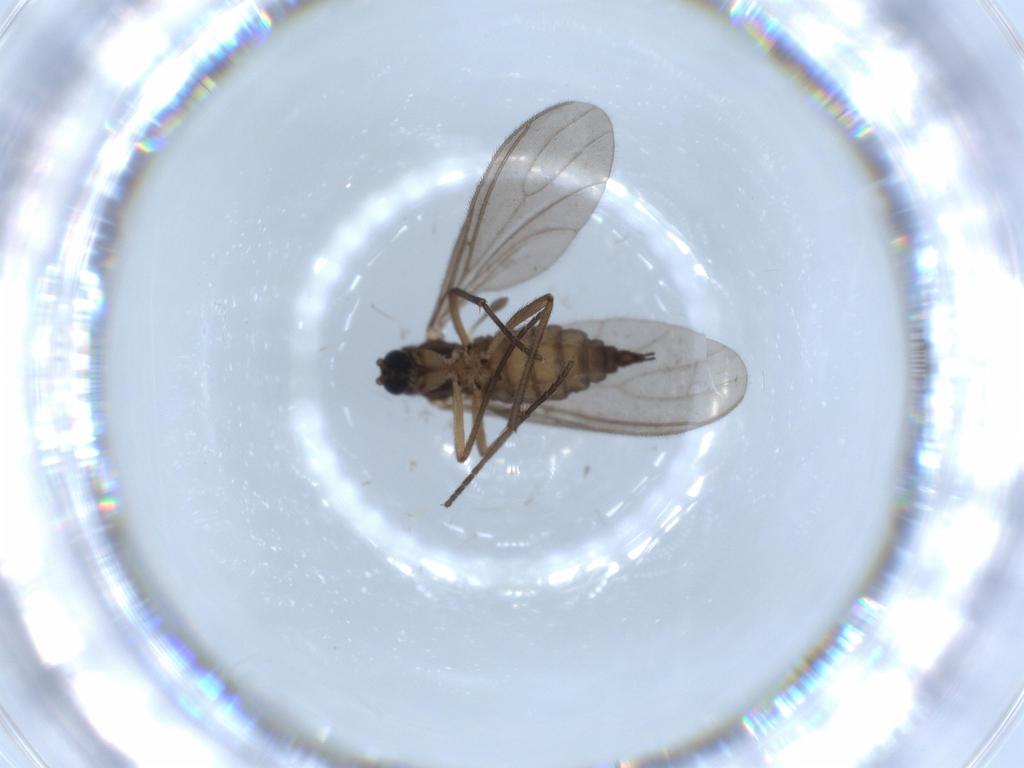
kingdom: Animalia
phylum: Arthropoda
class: Insecta
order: Diptera
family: Sciaridae
